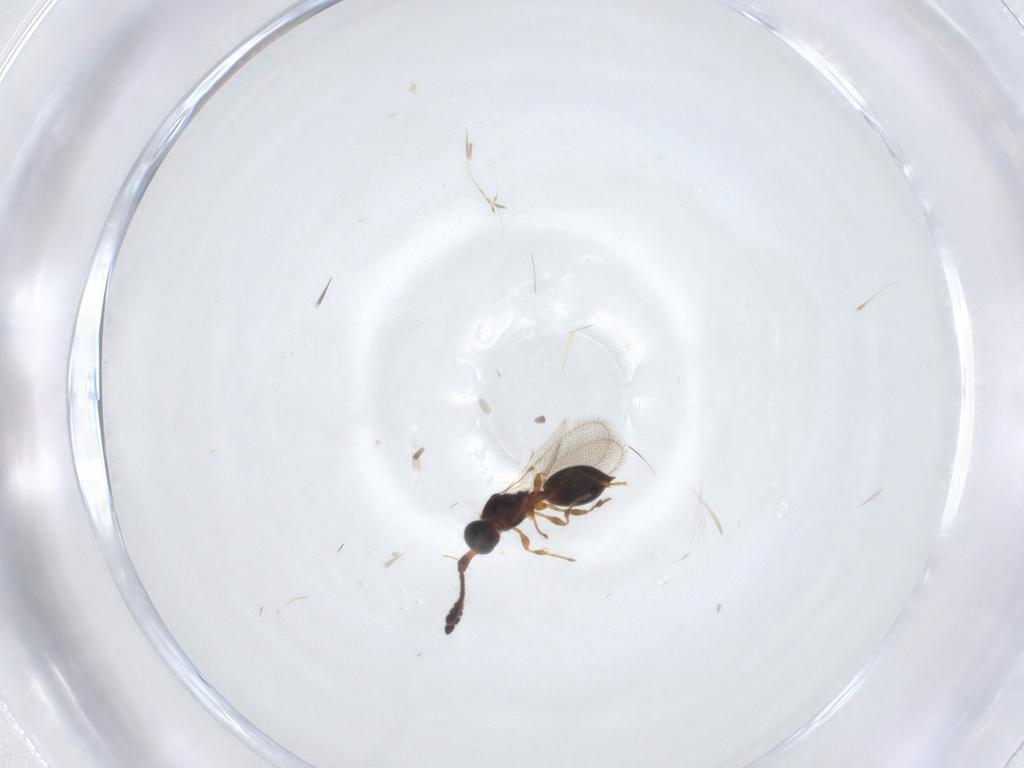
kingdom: Animalia
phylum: Arthropoda
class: Insecta
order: Hymenoptera
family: Diapriidae
